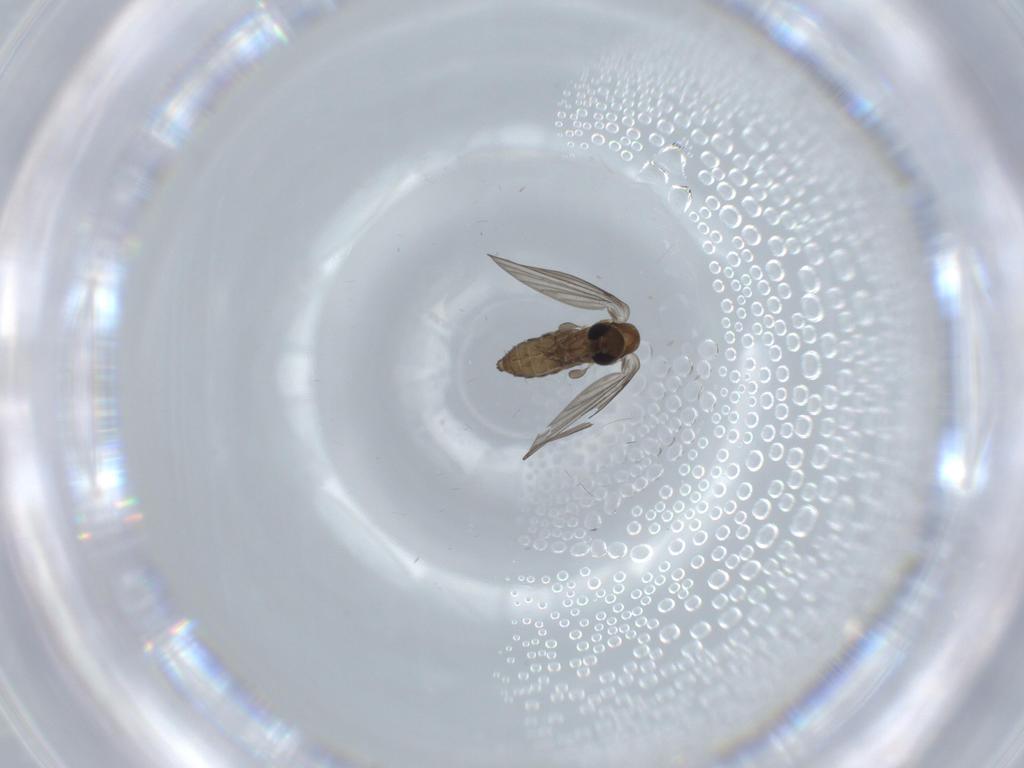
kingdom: Animalia
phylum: Arthropoda
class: Insecta
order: Diptera
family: Psychodidae
